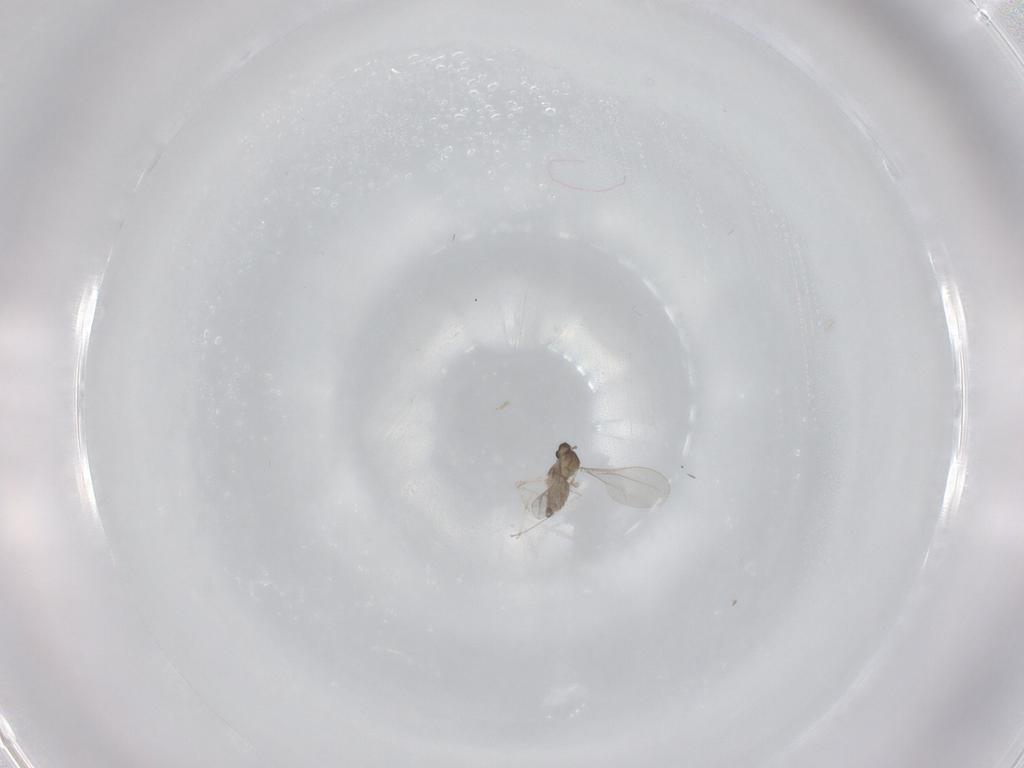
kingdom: Animalia
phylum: Arthropoda
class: Insecta
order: Diptera
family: Cecidomyiidae
